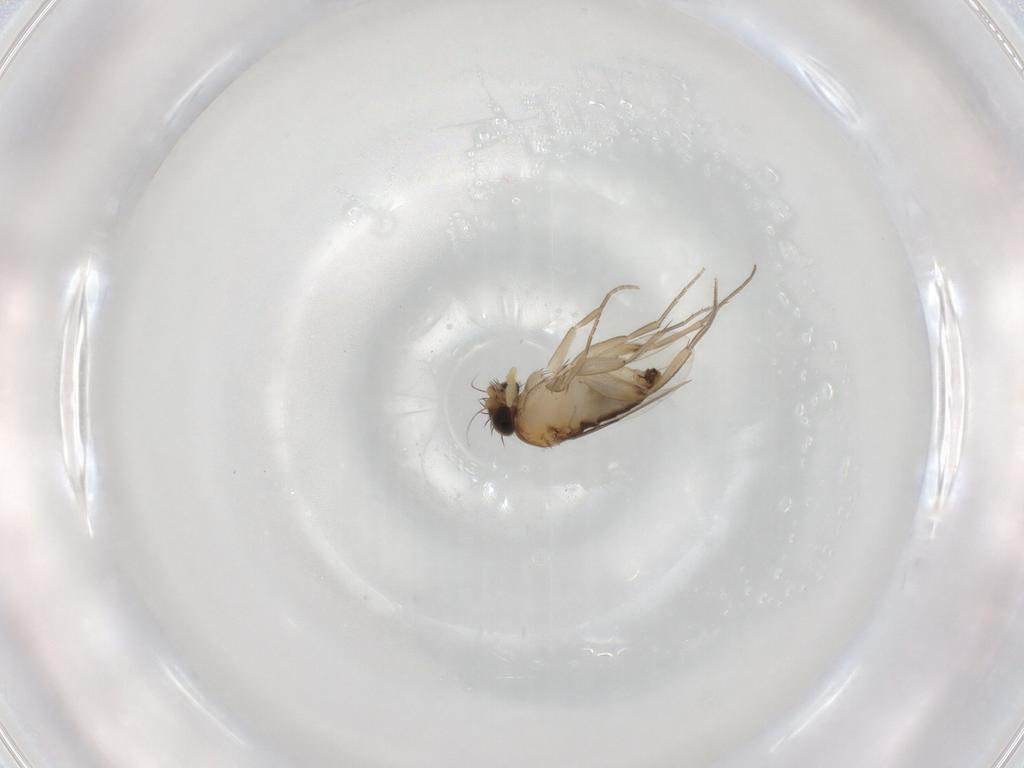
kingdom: Animalia
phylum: Arthropoda
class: Insecta
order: Diptera
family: Phoridae
